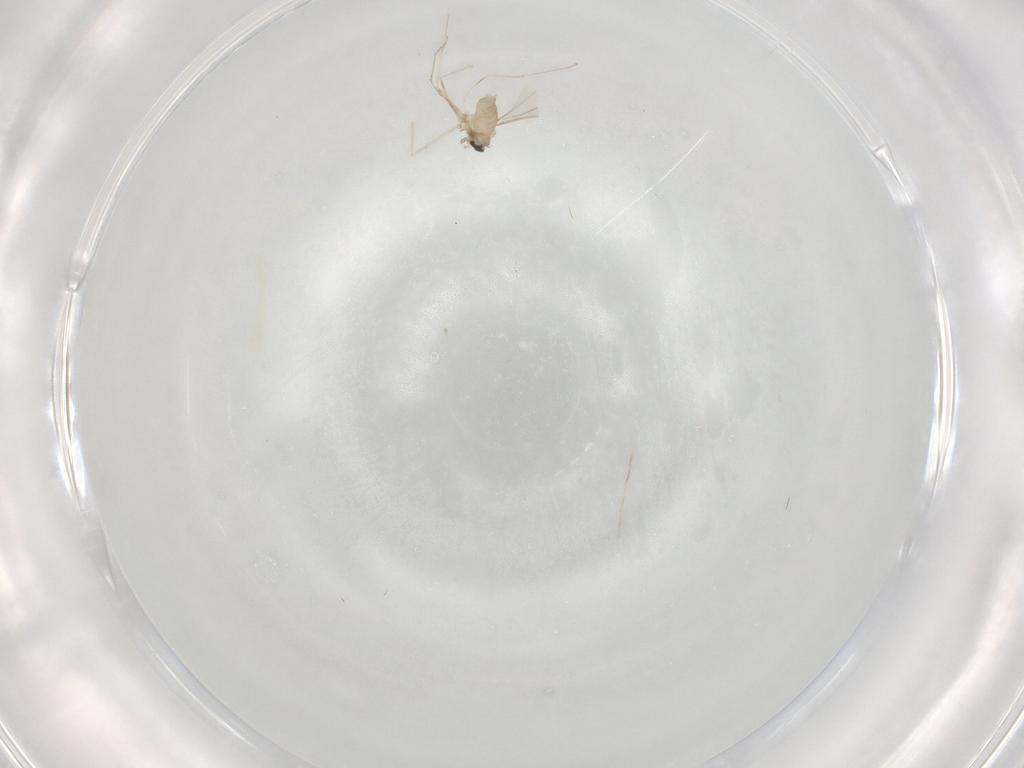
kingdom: Animalia
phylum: Arthropoda
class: Insecta
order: Diptera
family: Cecidomyiidae
